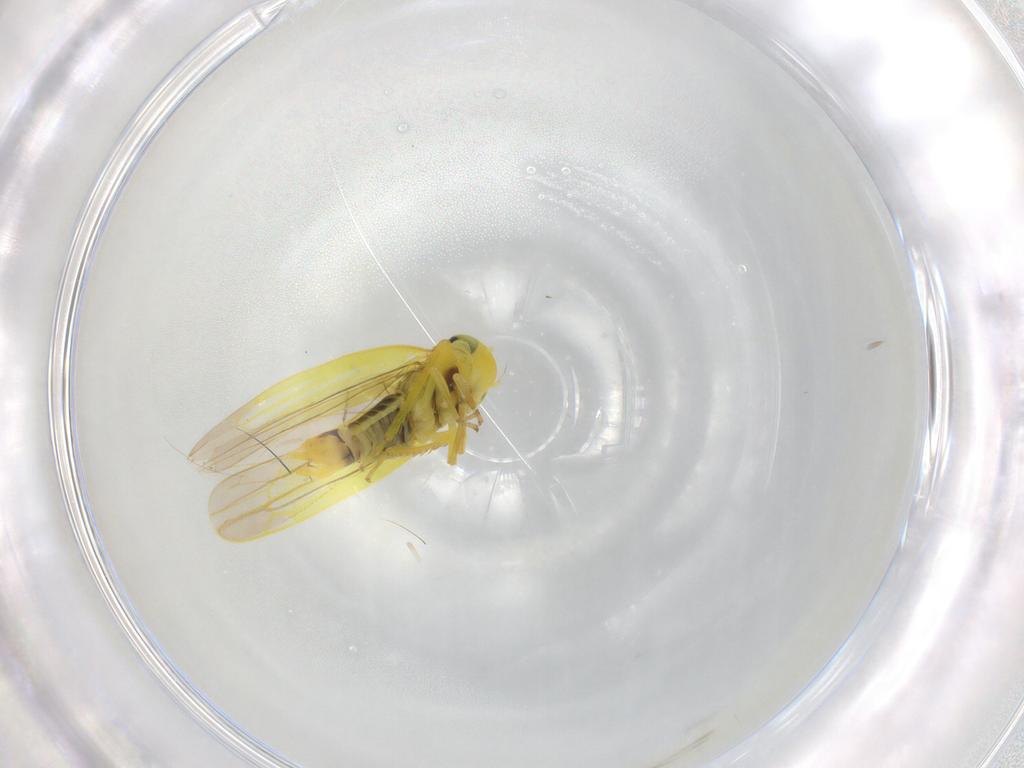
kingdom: Animalia
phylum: Arthropoda
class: Insecta
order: Hemiptera
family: Cicadellidae
